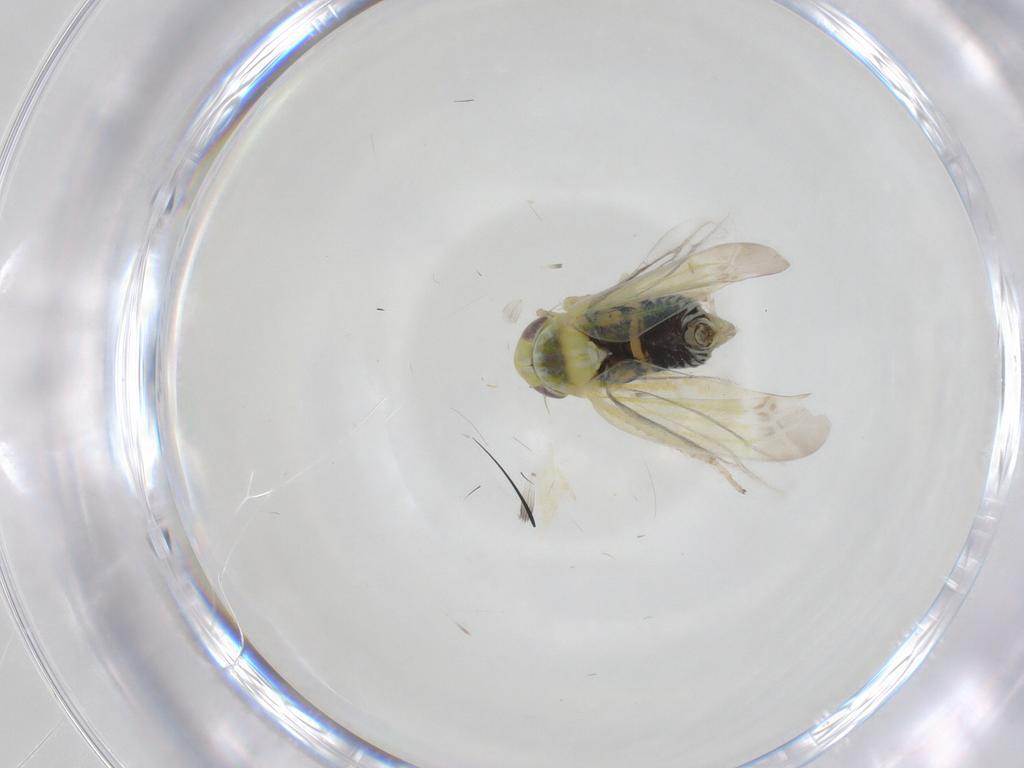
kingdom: Animalia
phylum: Arthropoda
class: Insecta
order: Hemiptera
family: Cicadellidae
